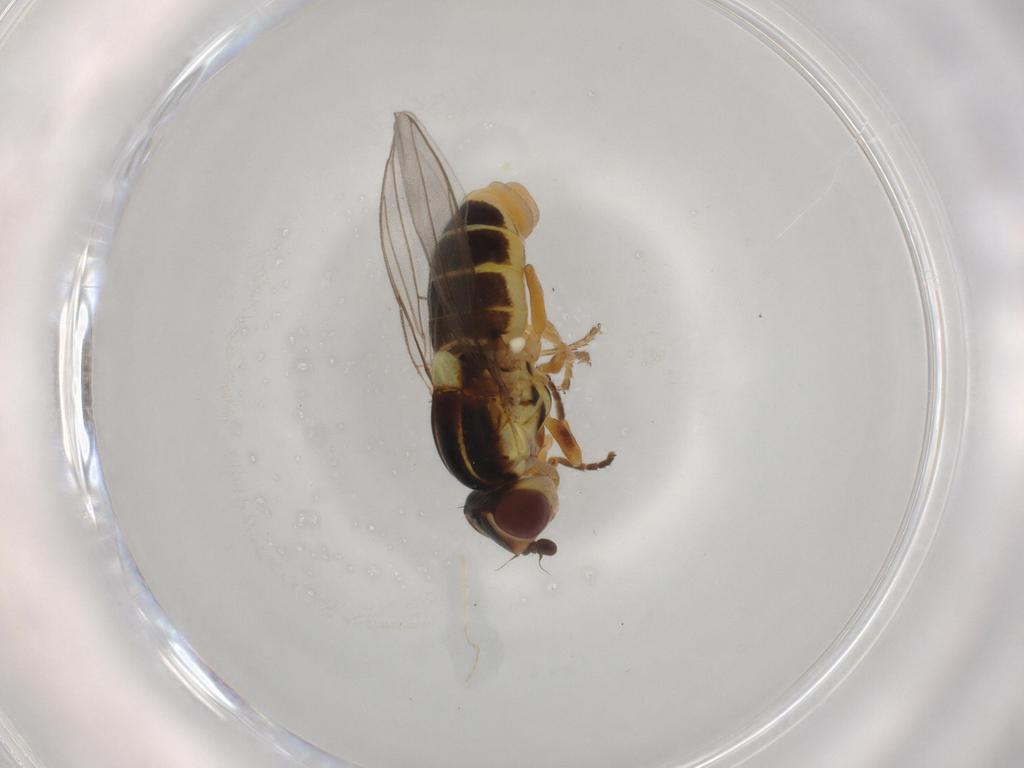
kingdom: Animalia
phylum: Arthropoda
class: Insecta
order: Diptera
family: Chloropidae
